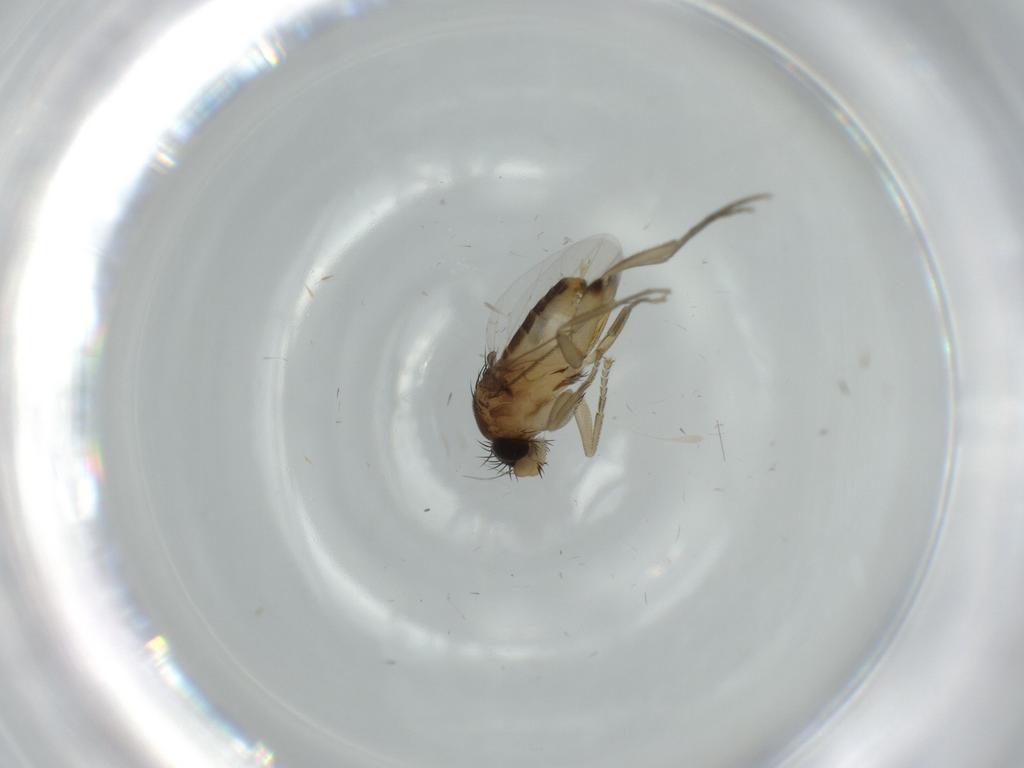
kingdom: Animalia
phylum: Arthropoda
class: Insecta
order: Diptera
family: Phoridae
